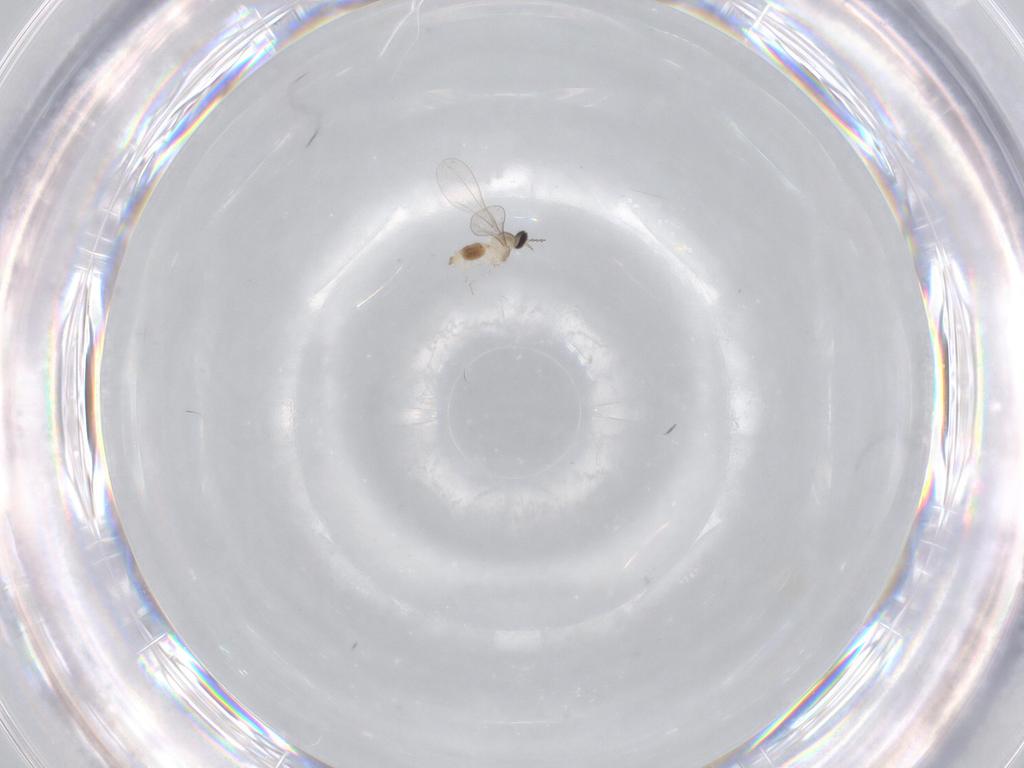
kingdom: Animalia
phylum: Arthropoda
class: Insecta
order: Diptera
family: Cecidomyiidae
